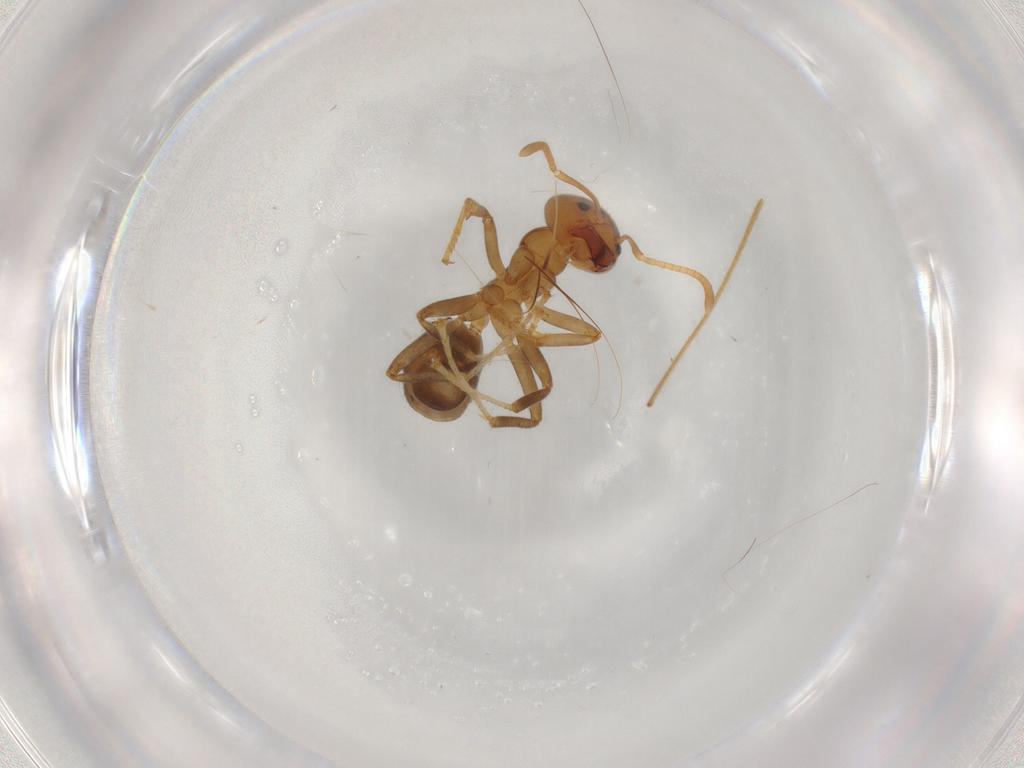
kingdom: Animalia
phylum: Arthropoda
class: Insecta
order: Hymenoptera
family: Formicidae
